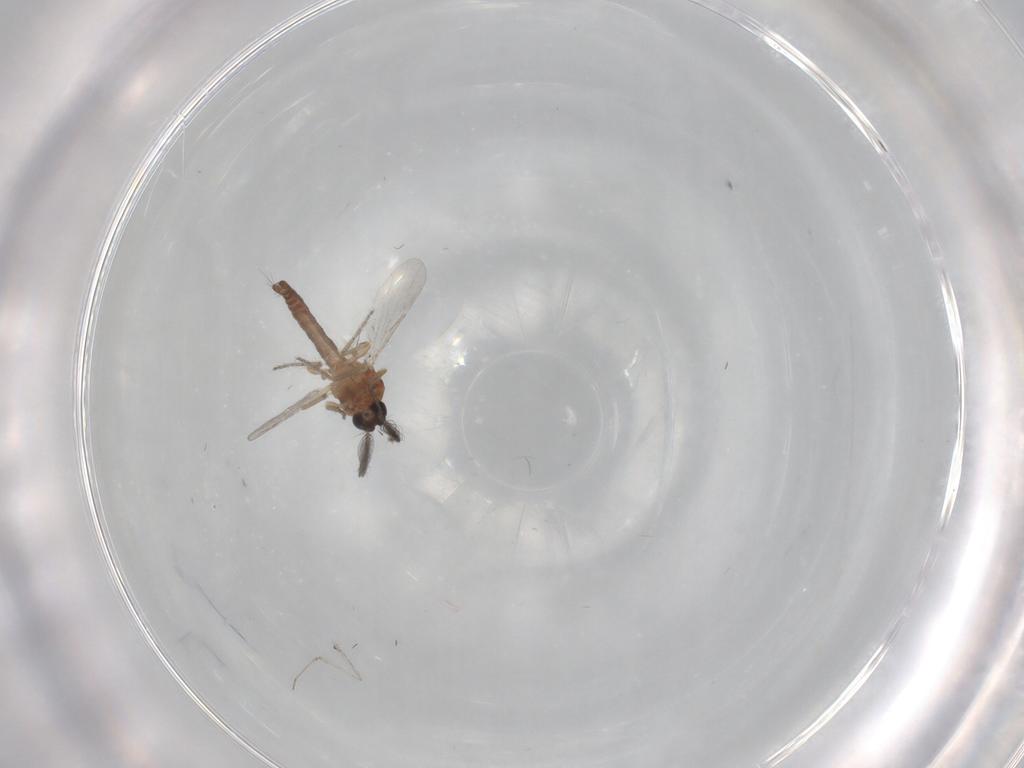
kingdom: Animalia
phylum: Arthropoda
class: Insecta
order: Diptera
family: Ceratopogonidae
